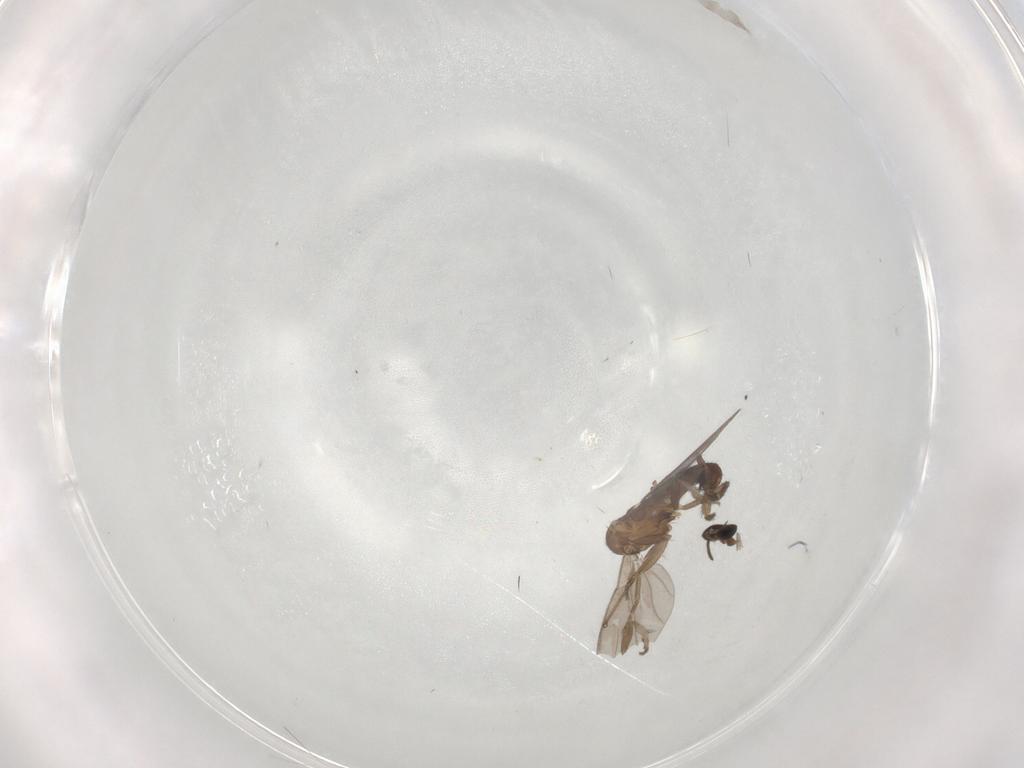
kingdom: Animalia
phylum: Arthropoda
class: Insecta
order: Diptera
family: Phoridae
